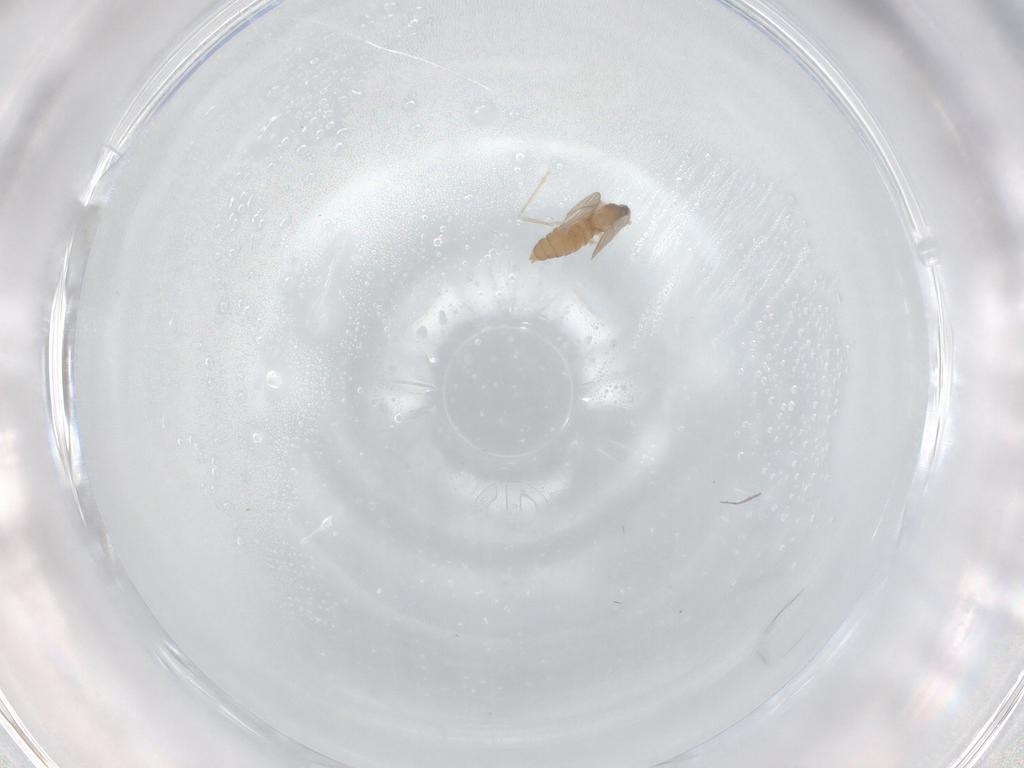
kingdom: Animalia
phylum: Arthropoda
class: Insecta
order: Diptera
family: Cecidomyiidae
